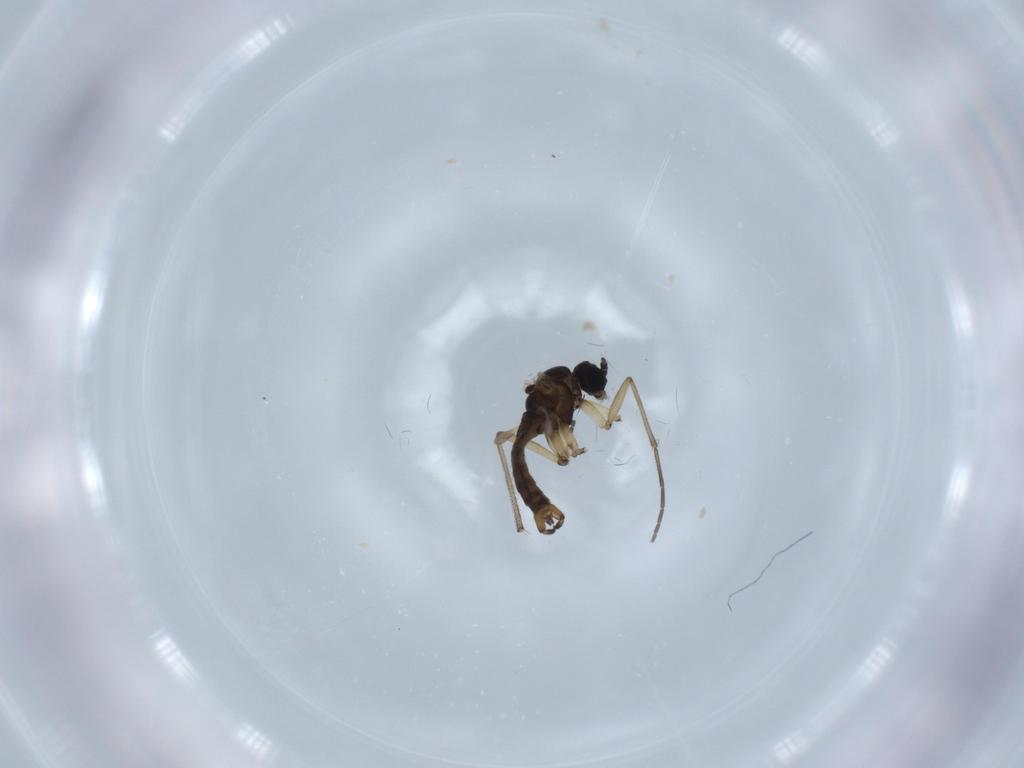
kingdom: Animalia
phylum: Arthropoda
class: Insecta
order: Diptera
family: Sciaridae
